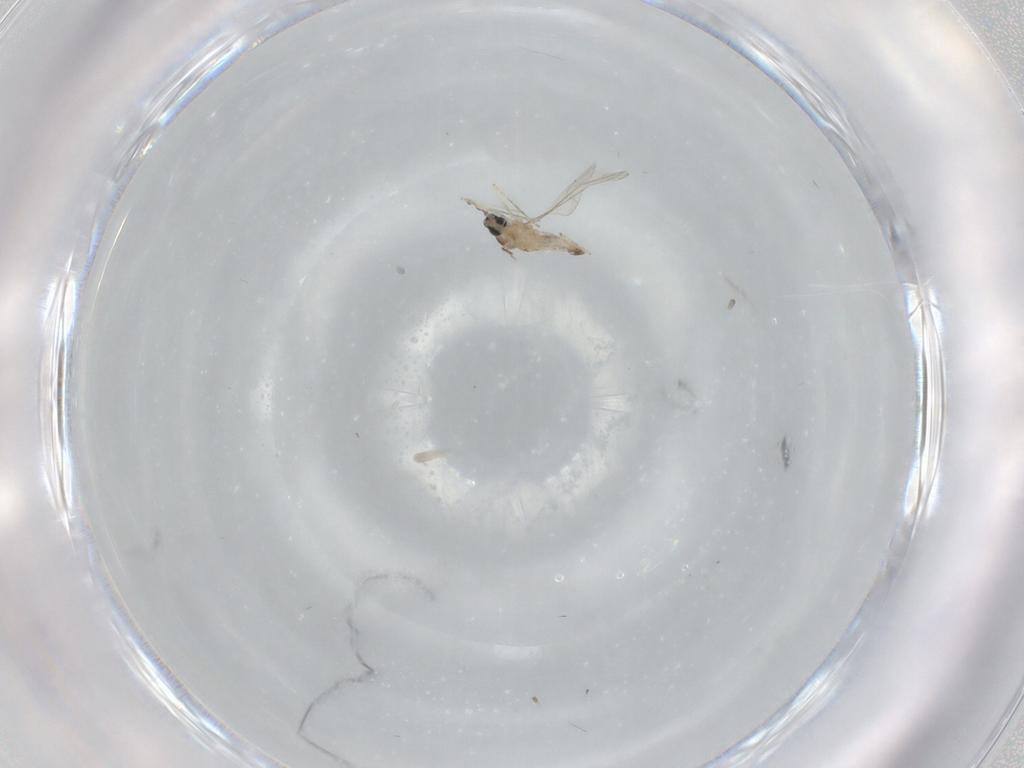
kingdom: Animalia
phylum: Arthropoda
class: Insecta
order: Diptera
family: Cecidomyiidae
